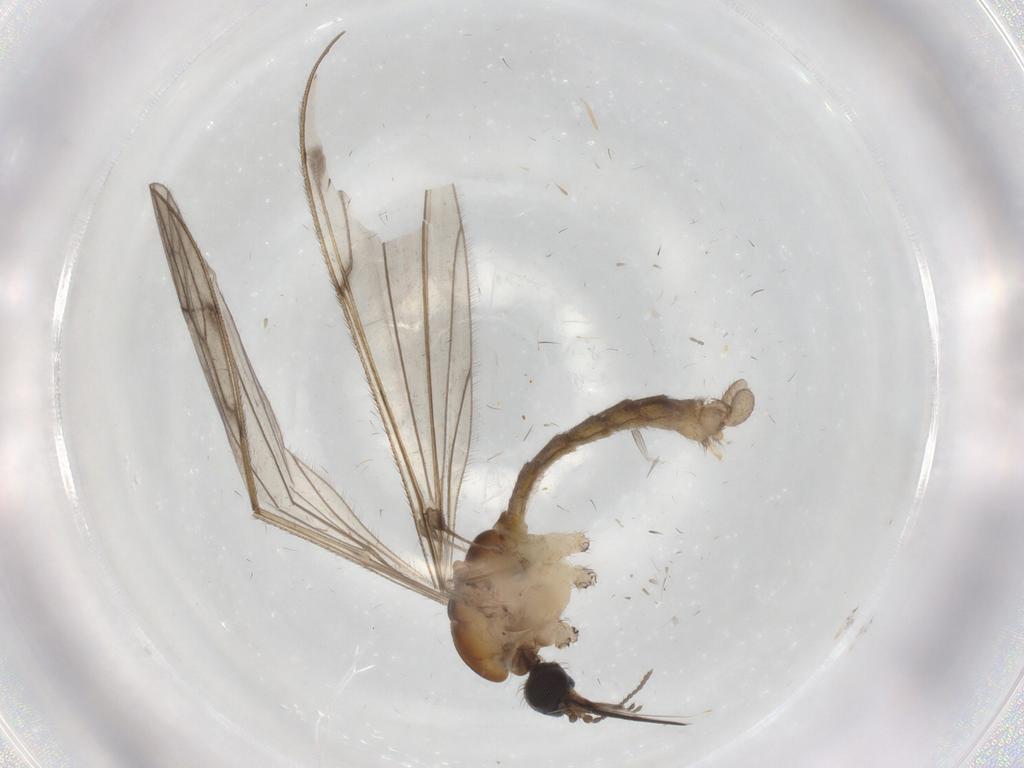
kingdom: Animalia
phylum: Arthropoda
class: Insecta
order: Diptera
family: Limoniidae
